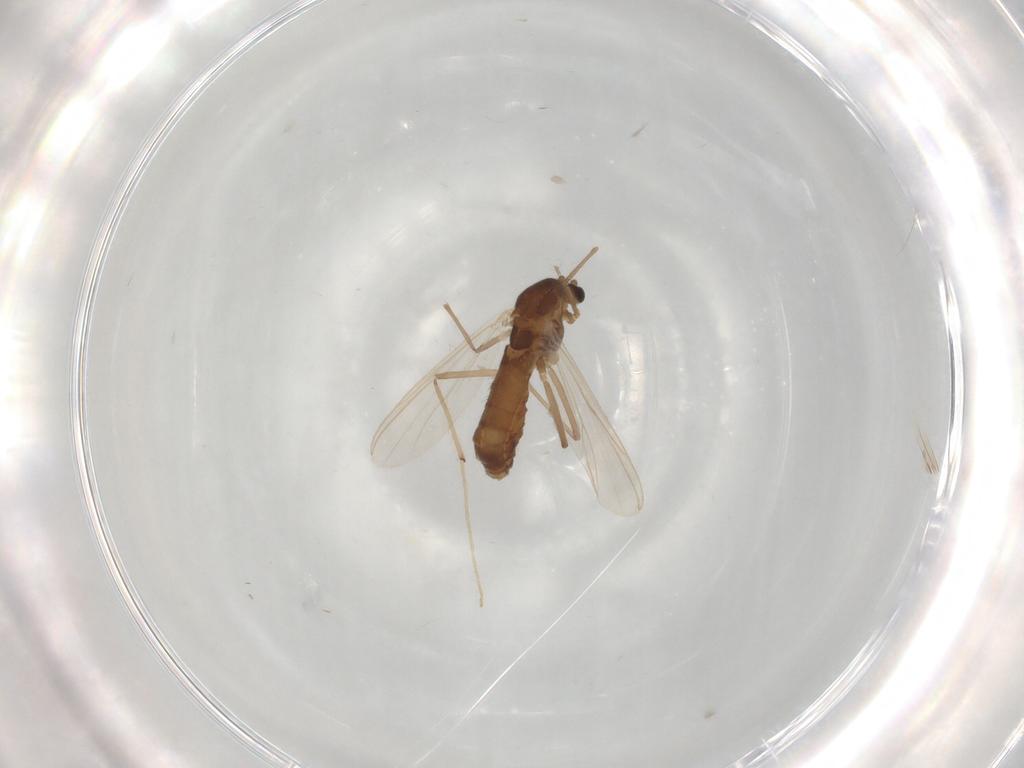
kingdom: Animalia
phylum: Arthropoda
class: Insecta
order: Diptera
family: Chironomidae
